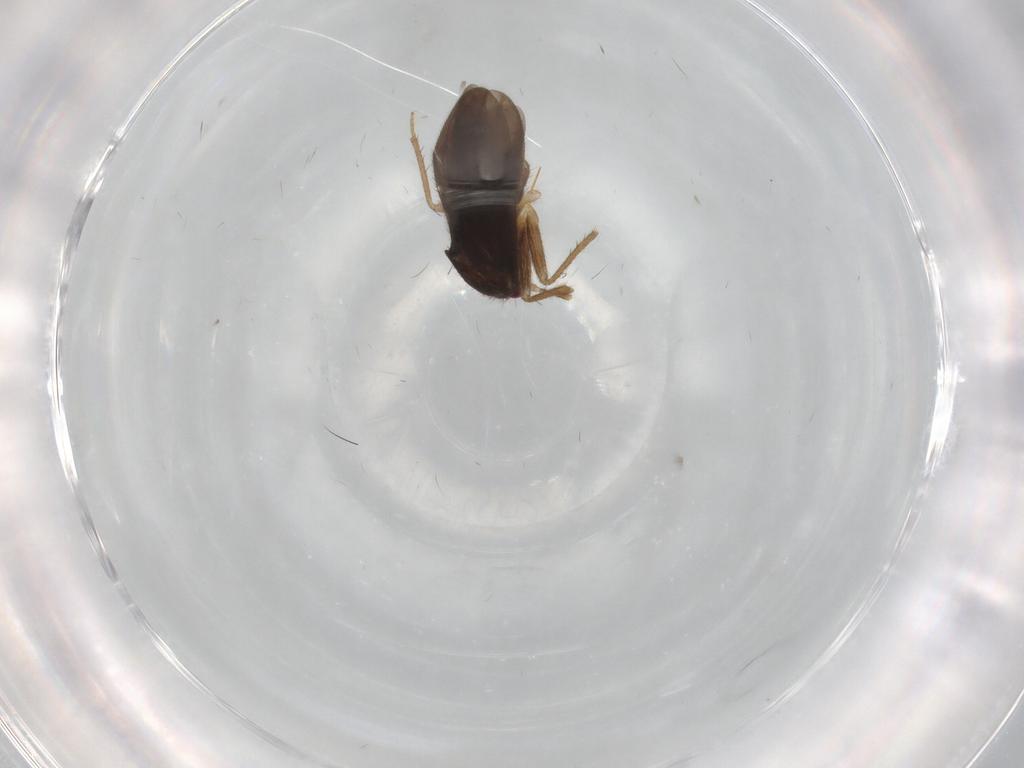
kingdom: Animalia
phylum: Arthropoda
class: Insecta
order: Hemiptera
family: Ceratocombidae
